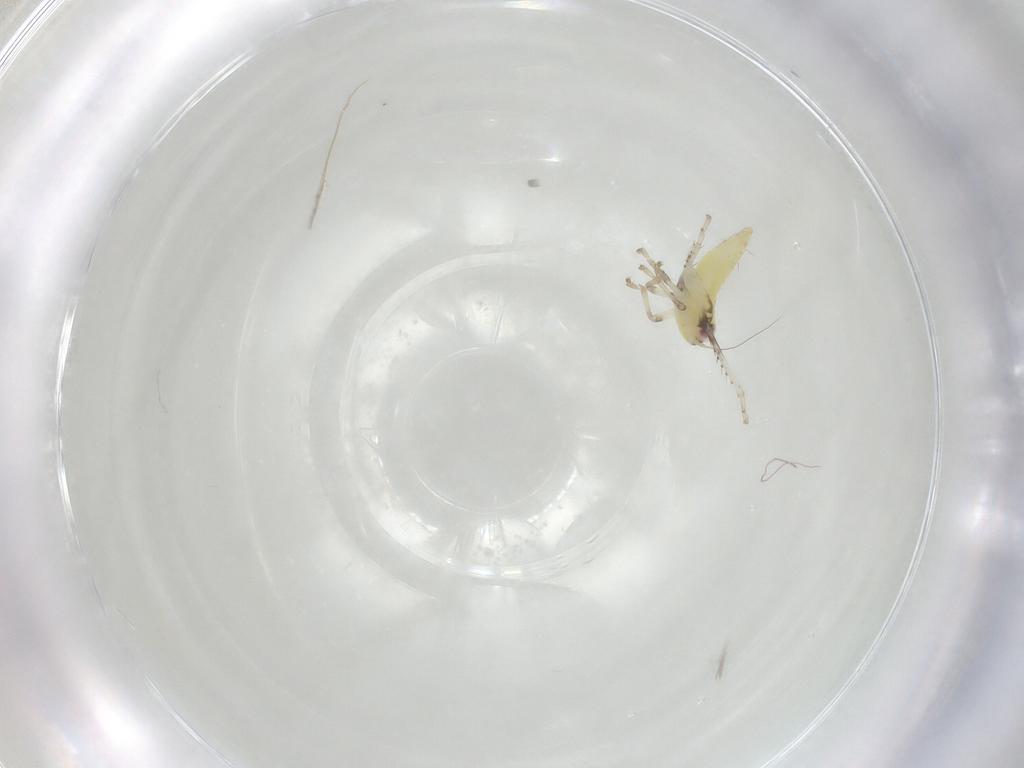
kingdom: Animalia
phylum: Arthropoda
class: Insecta
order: Hemiptera
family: Cicadellidae
